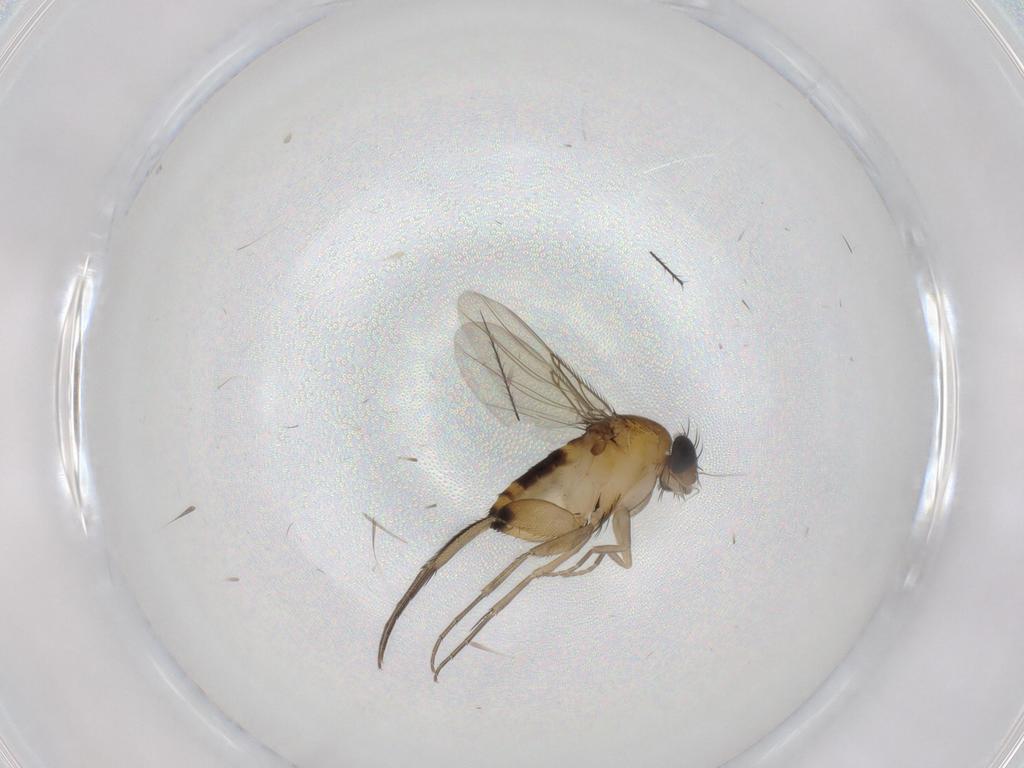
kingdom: Animalia
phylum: Arthropoda
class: Insecta
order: Diptera
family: Phoridae
